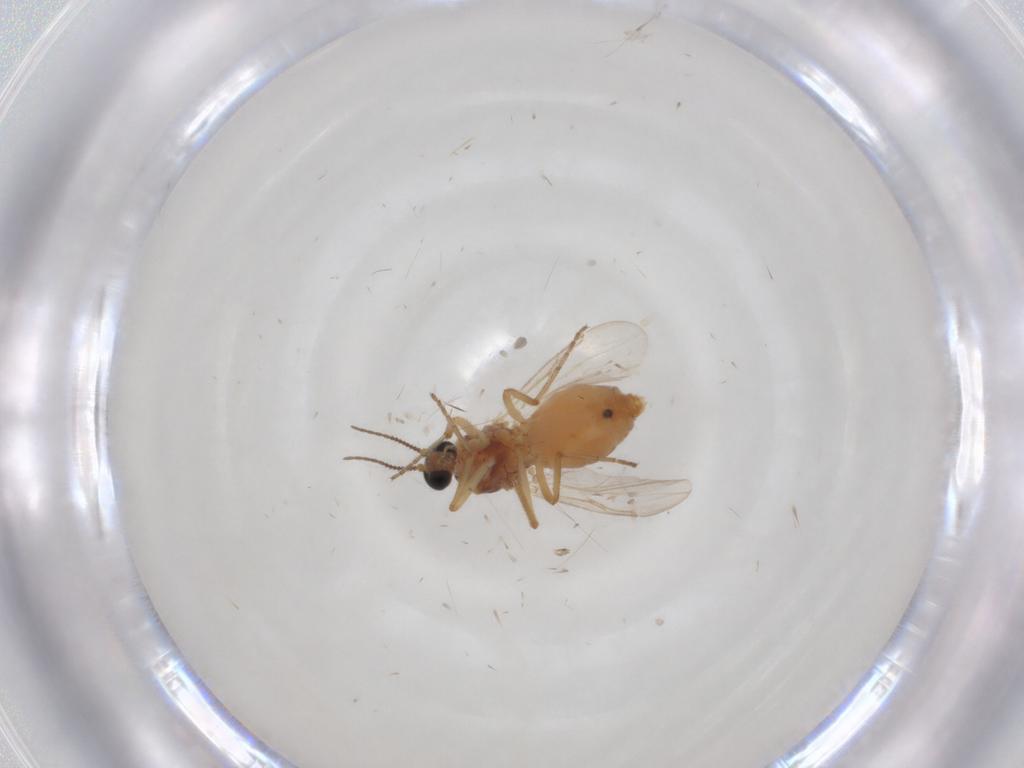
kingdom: Animalia
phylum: Arthropoda
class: Insecta
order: Diptera
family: Ceratopogonidae
